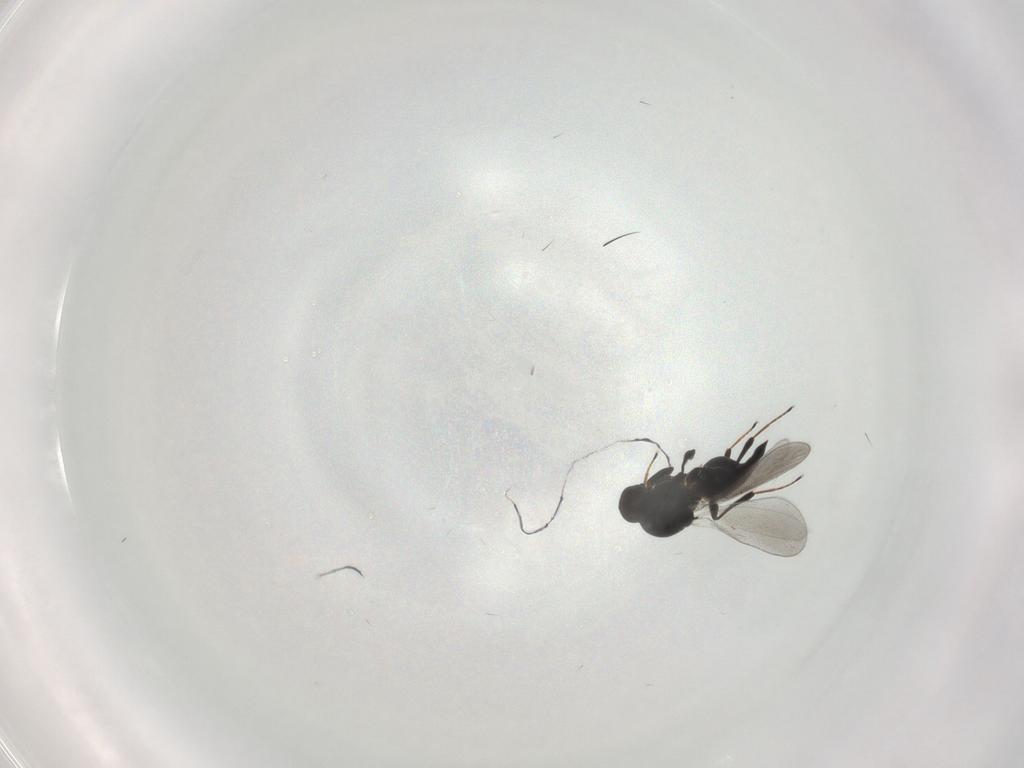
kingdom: Animalia
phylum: Arthropoda
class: Insecta
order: Hymenoptera
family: Platygastridae
